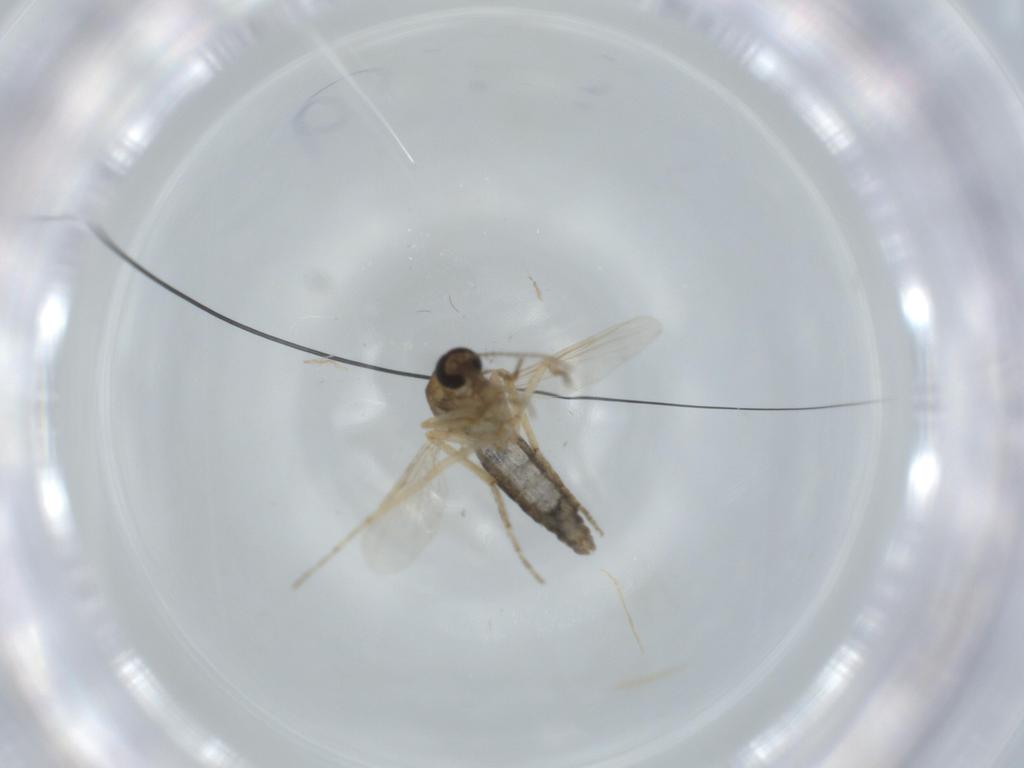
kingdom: Animalia
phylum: Arthropoda
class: Insecta
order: Diptera
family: Ceratopogonidae
